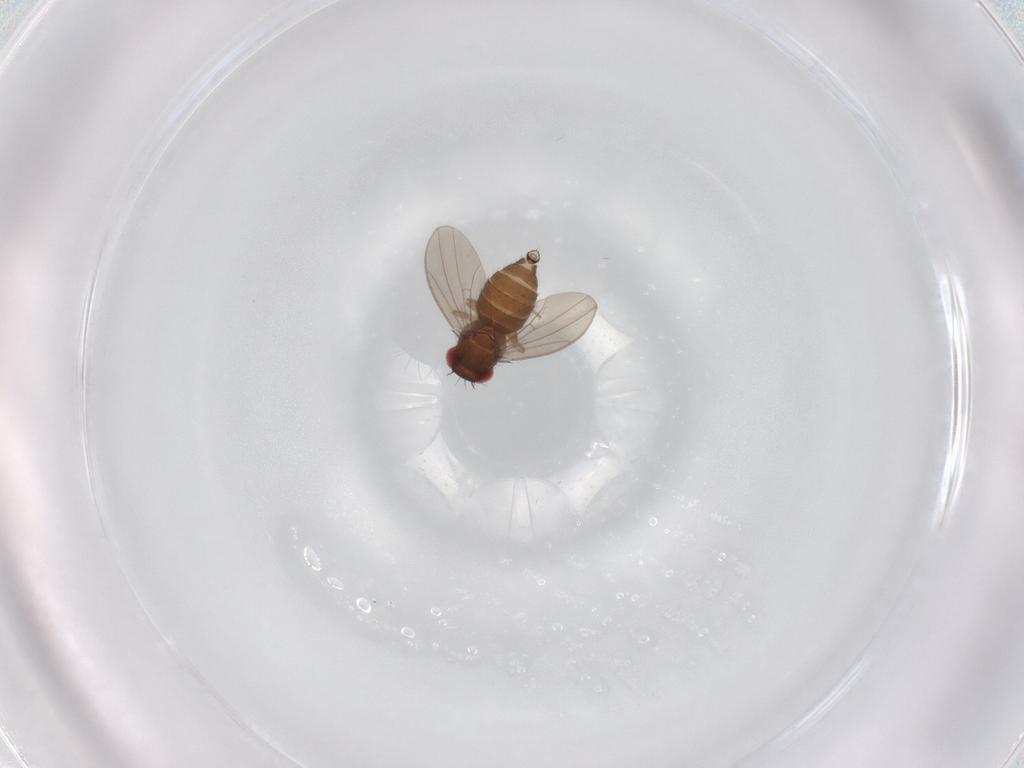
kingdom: Animalia
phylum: Arthropoda
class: Insecta
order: Diptera
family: Drosophilidae
